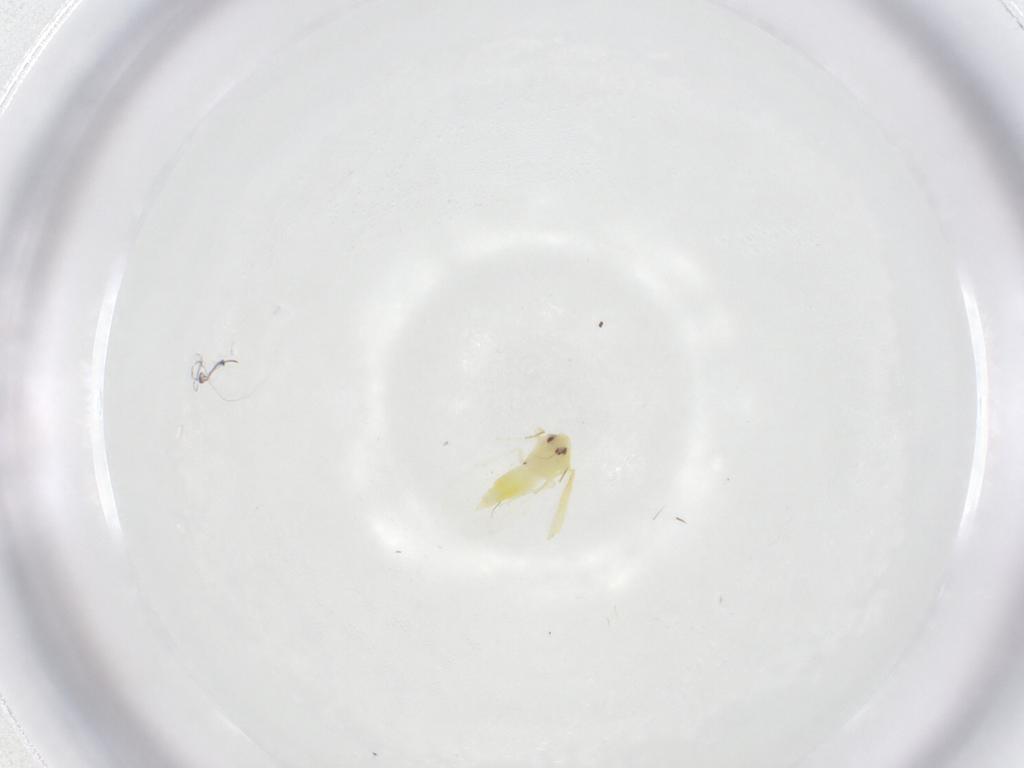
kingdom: Animalia
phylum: Arthropoda
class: Insecta
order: Hemiptera
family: Aleyrodidae
